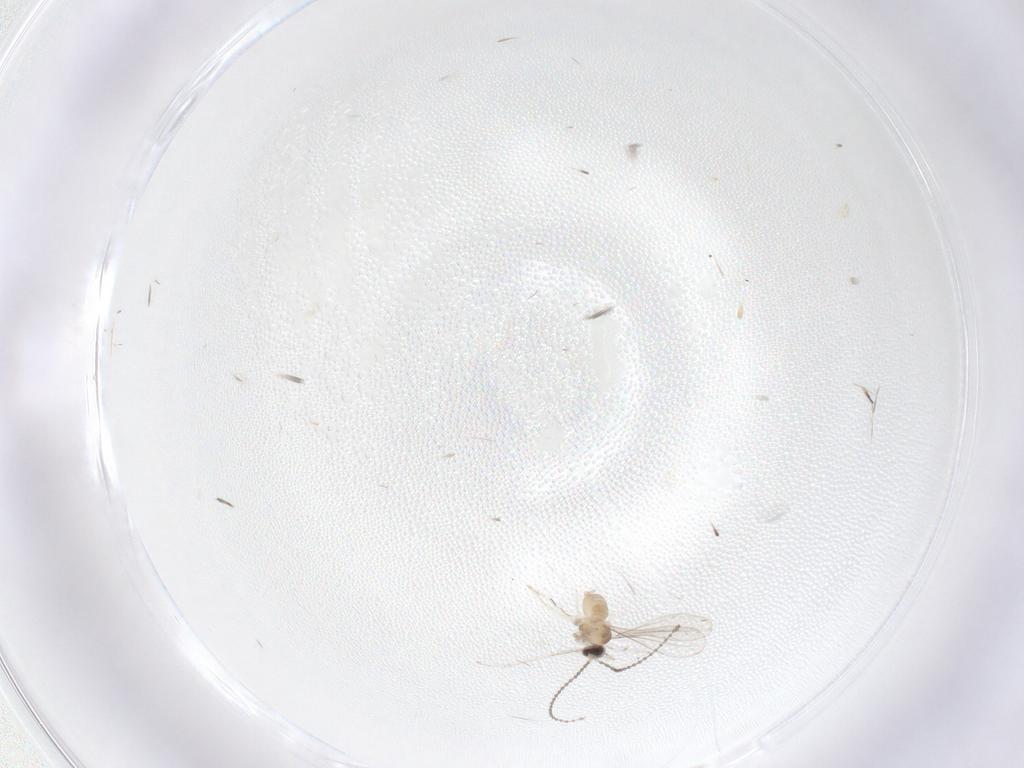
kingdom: Animalia
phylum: Arthropoda
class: Insecta
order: Diptera
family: Cecidomyiidae
